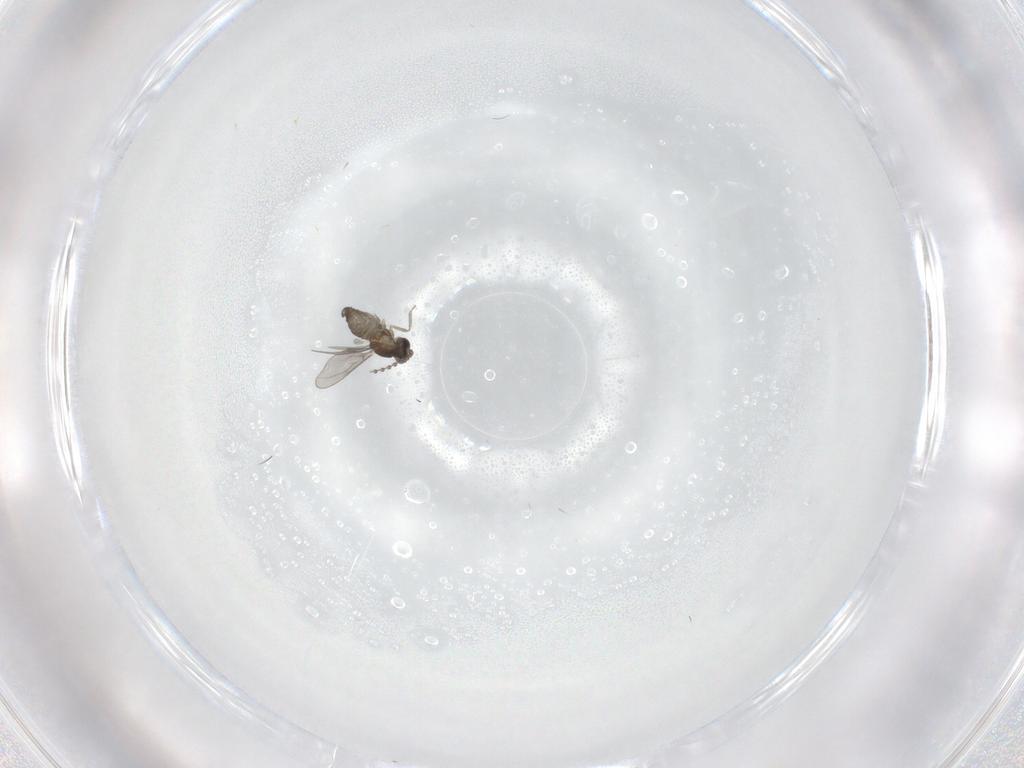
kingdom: Animalia
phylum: Arthropoda
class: Insecta
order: Diptera
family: Cecidomyiidae
